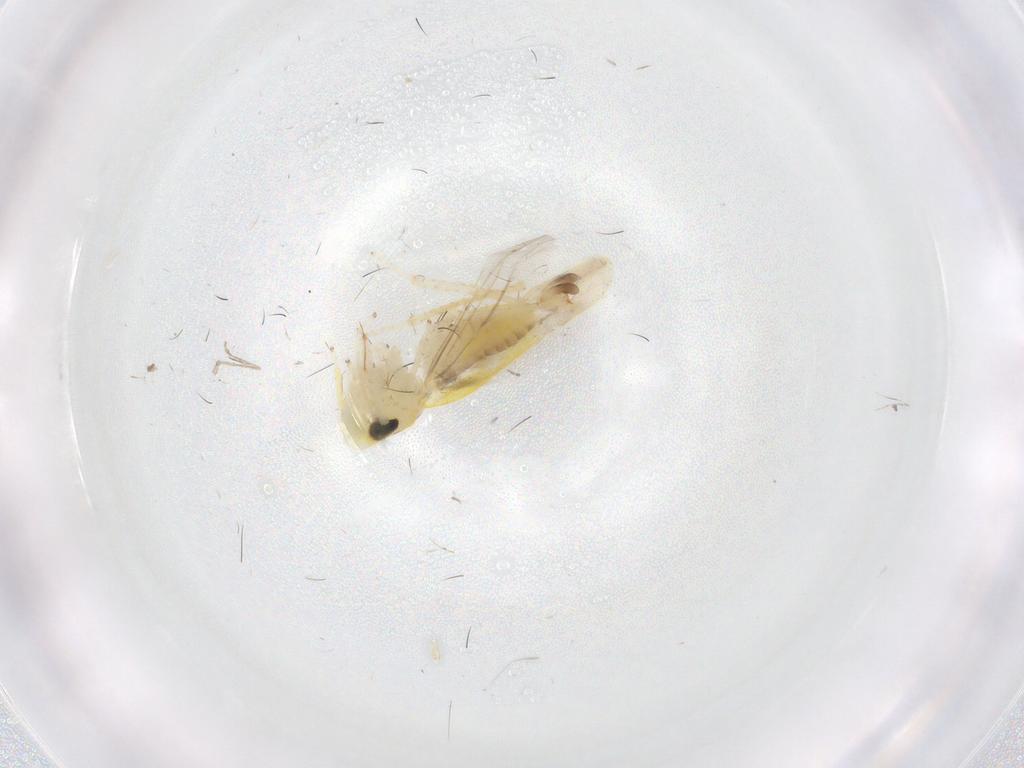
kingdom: Animalia
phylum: Arthropoda
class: Insecta
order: Hemiptera
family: Cicadellidae
